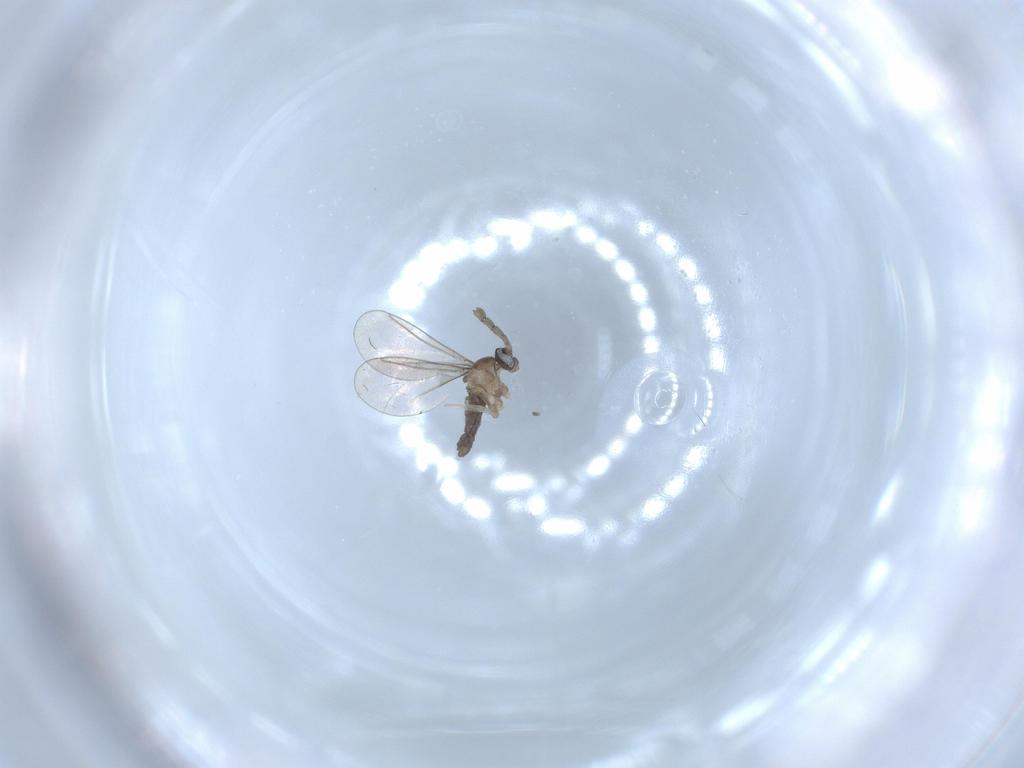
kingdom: Animalia
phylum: Arthropoda
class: Insecta
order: Diptera
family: Cecidomyiidae
